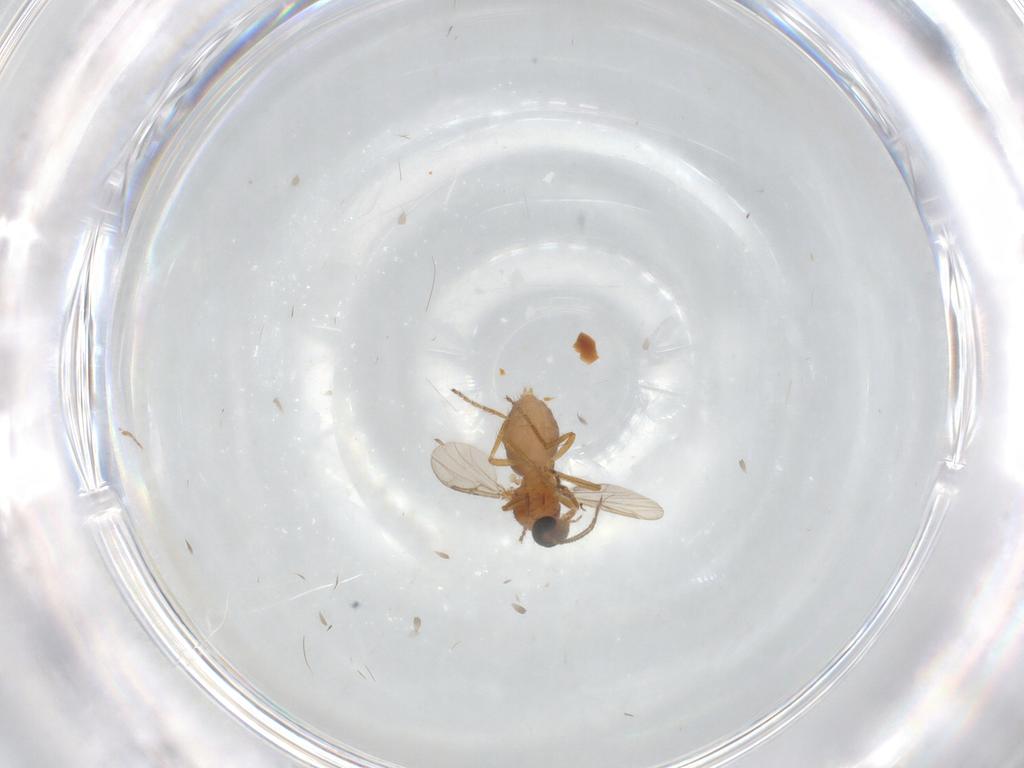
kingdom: Animalia
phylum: Arthropoda
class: Insecta
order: Diptera
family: Ceratopogonidae
